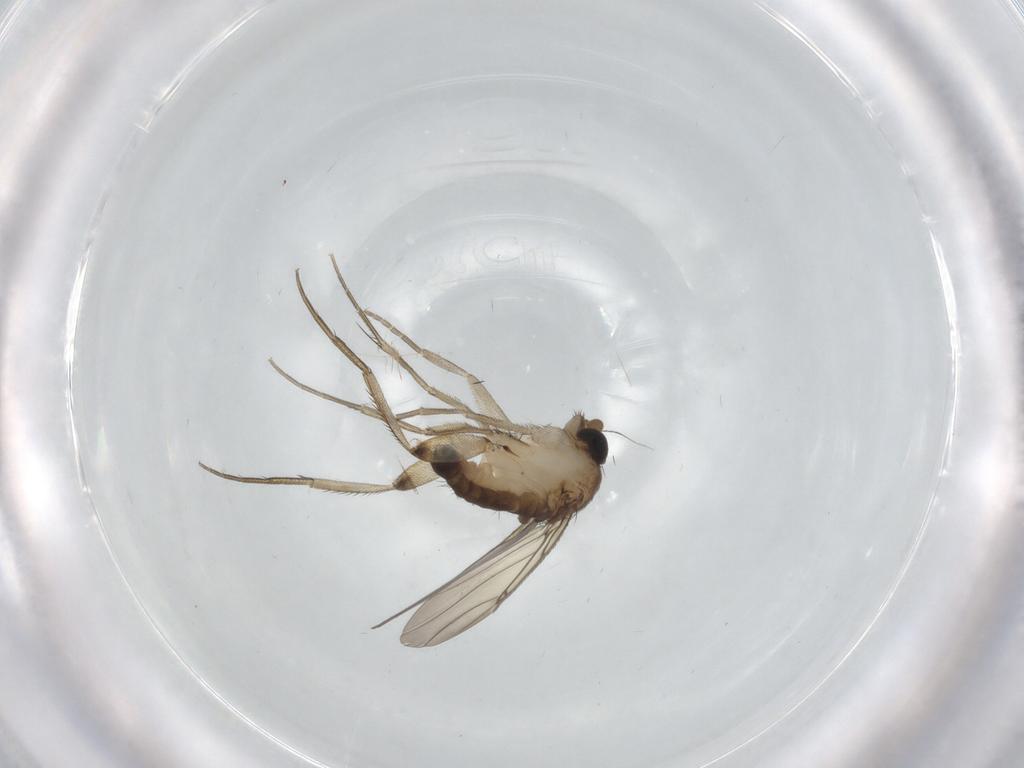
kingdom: Animalia
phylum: Arthropoda
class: Insecta
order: Diptera
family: Phoridae
